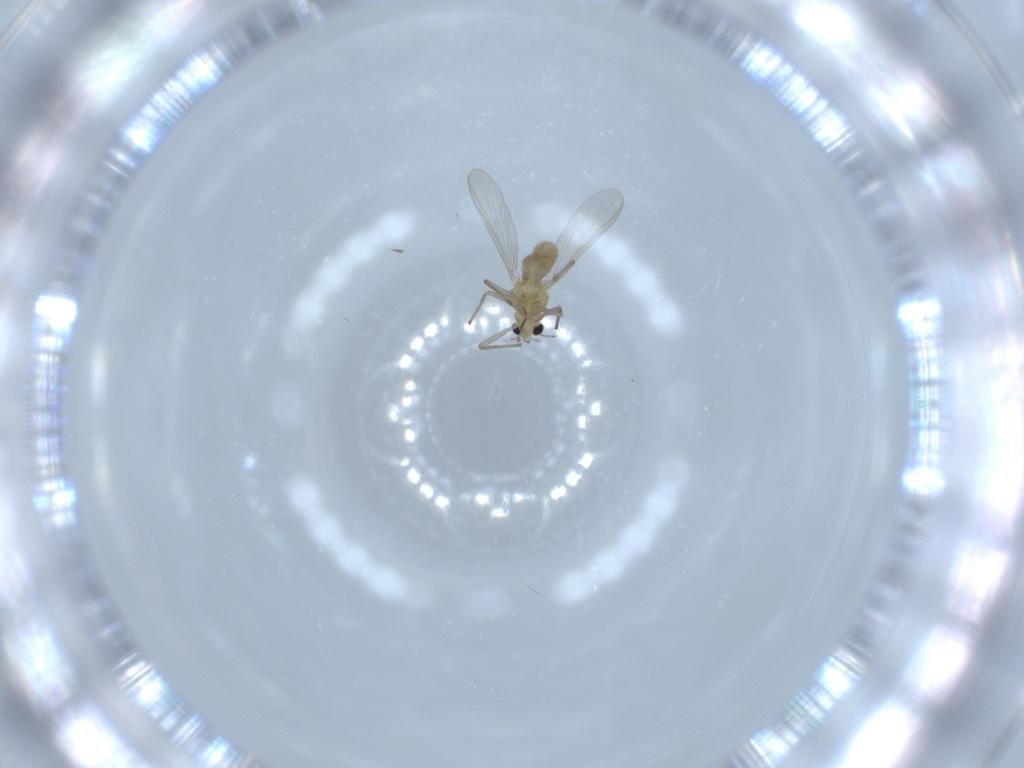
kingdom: Animalia
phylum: Arthropoda
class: Insecta
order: Diptera
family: Chironomidae
